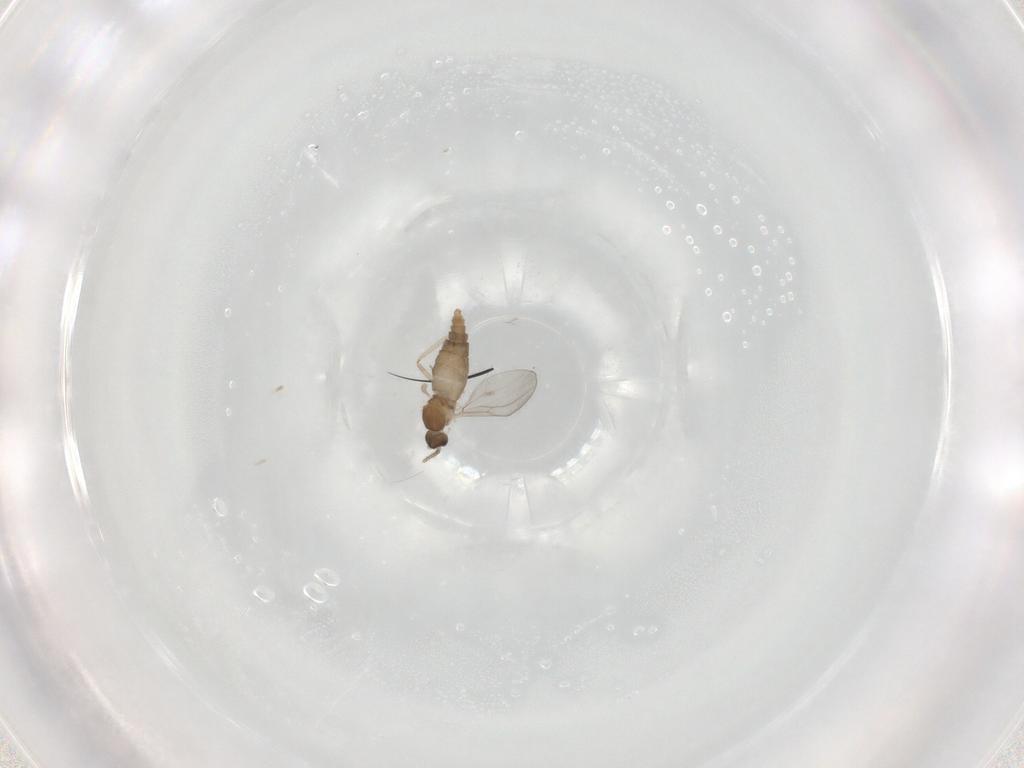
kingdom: Animalia
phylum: Arthropoda
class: Insecta
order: Diptera
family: Cecidomyiidae
